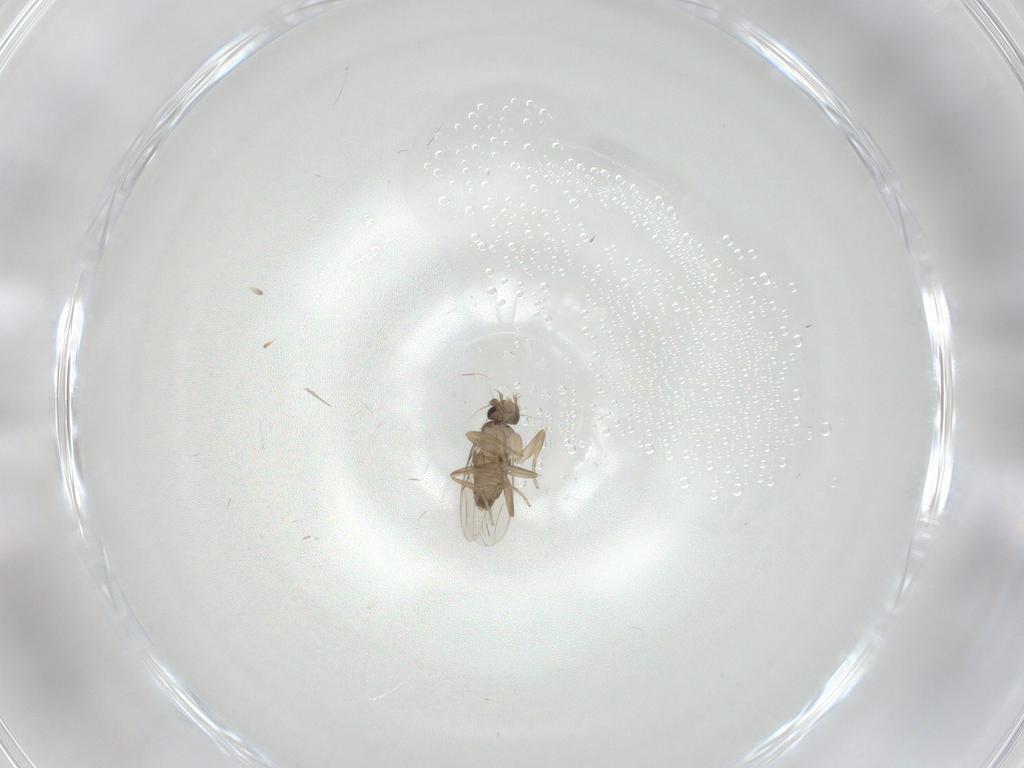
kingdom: Animalia
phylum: Arthropoda
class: Insecta
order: Diptera
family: Phoridae
